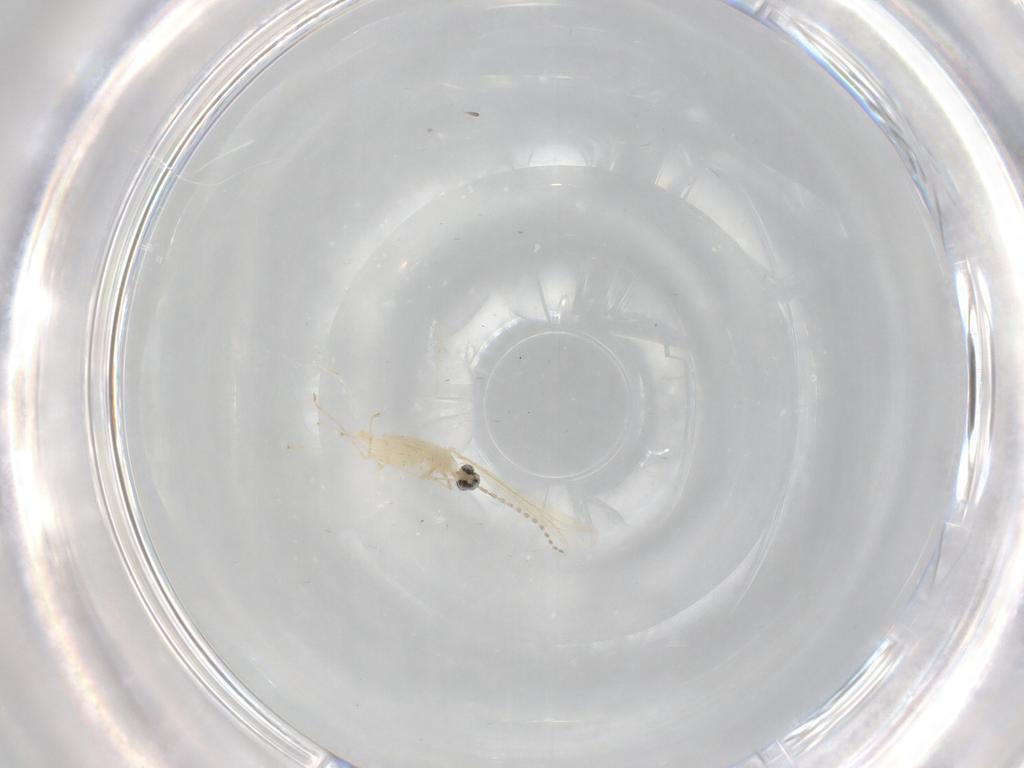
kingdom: Animalia
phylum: Arthropoda
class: Insecta
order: Diptera
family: Cecidomyiidae
